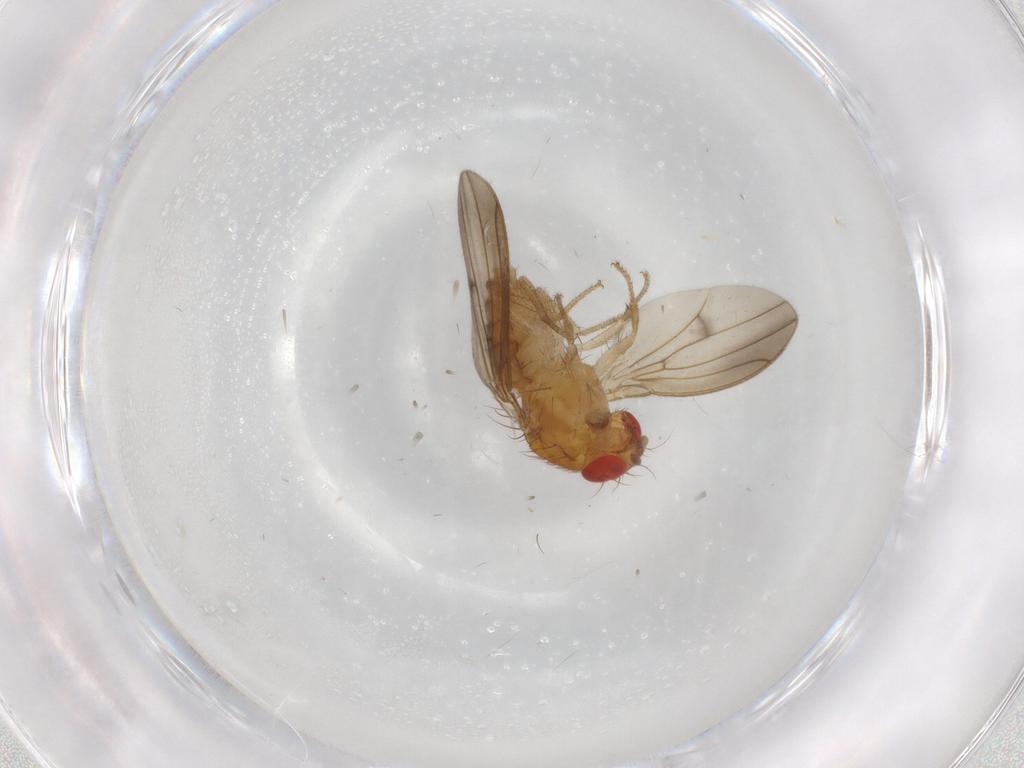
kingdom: Animalia
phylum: Arthropoda
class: Insecta
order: Diptera
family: Drosophilidae
